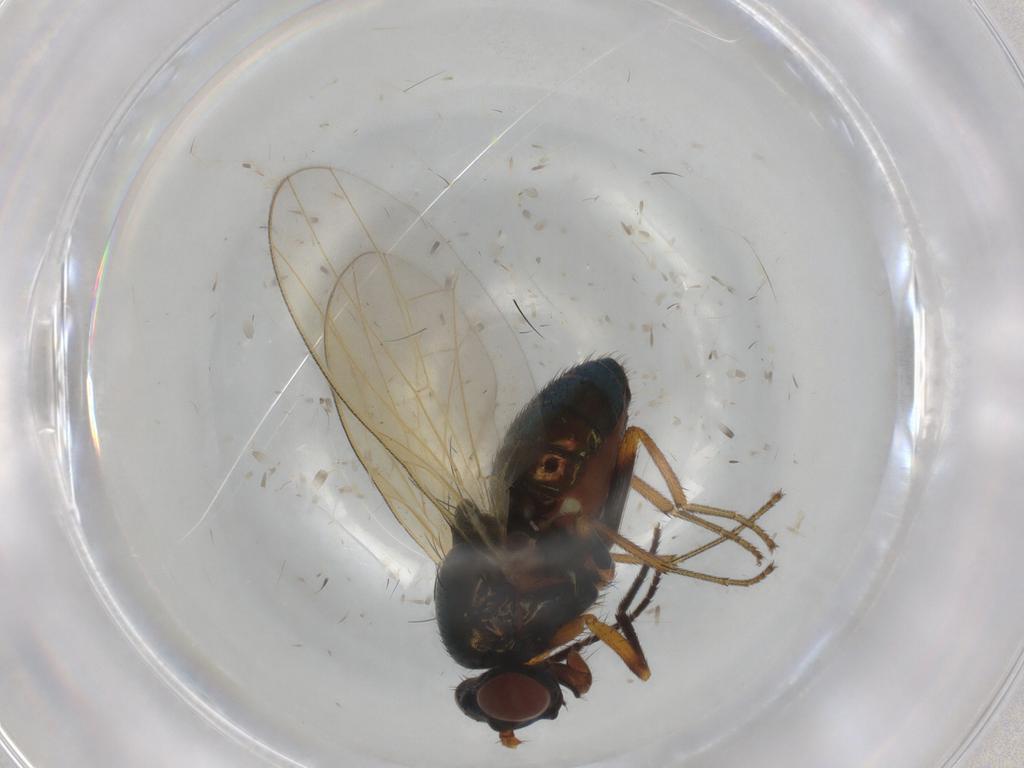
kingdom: Animalia
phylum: Arthropoda
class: Insecta
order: Diptera
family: Lauxaniidae
